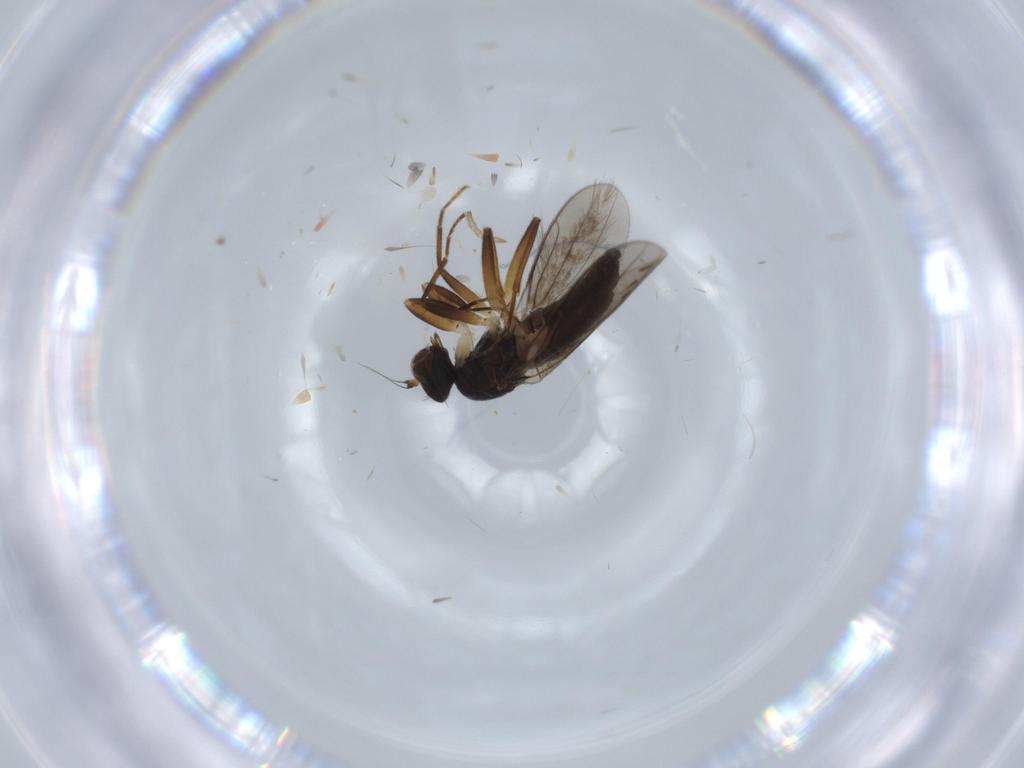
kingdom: Animalia
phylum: Arthropoda
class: Insecta
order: Diptera
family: Hybotidae
